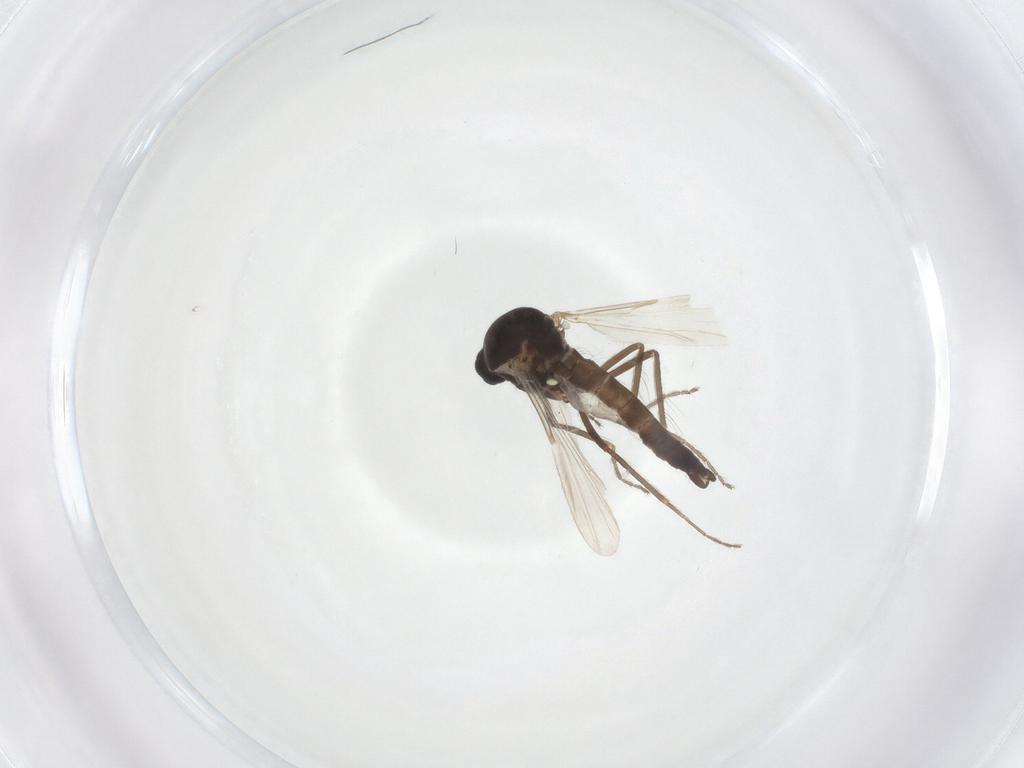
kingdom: Animalia
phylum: Arthropoda
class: Insecta
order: Diptera
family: Ceratopogonidae
